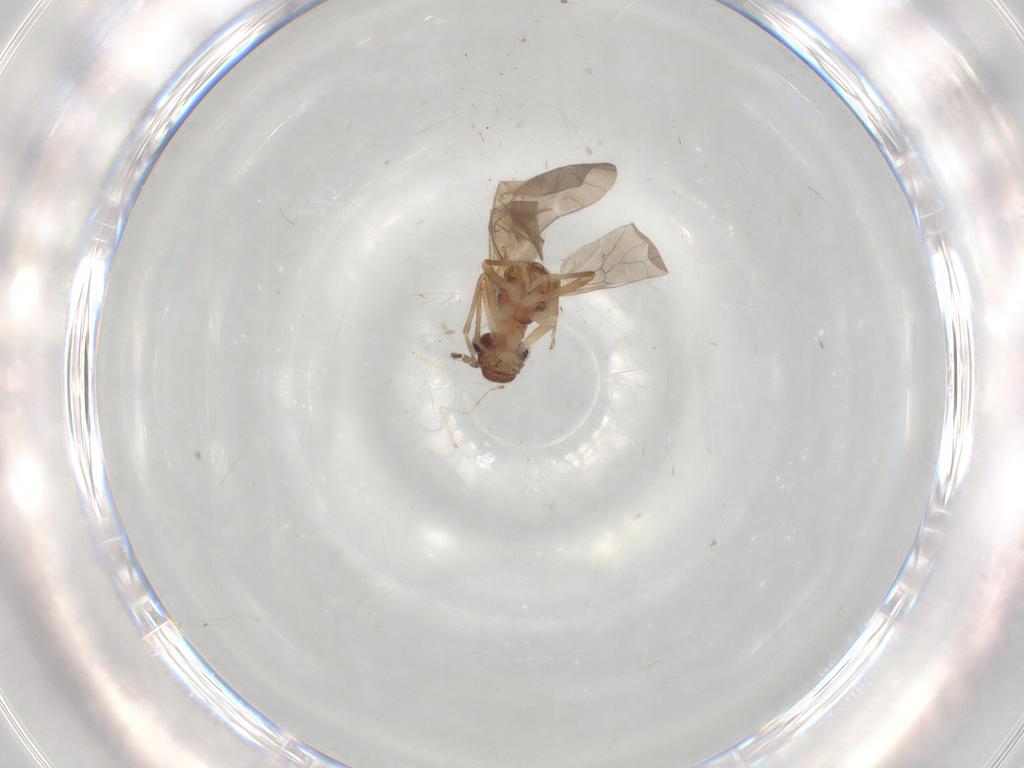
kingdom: Animalia
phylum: Arthropoda
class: Insecta
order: Psocodea
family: Caeciliusidae
